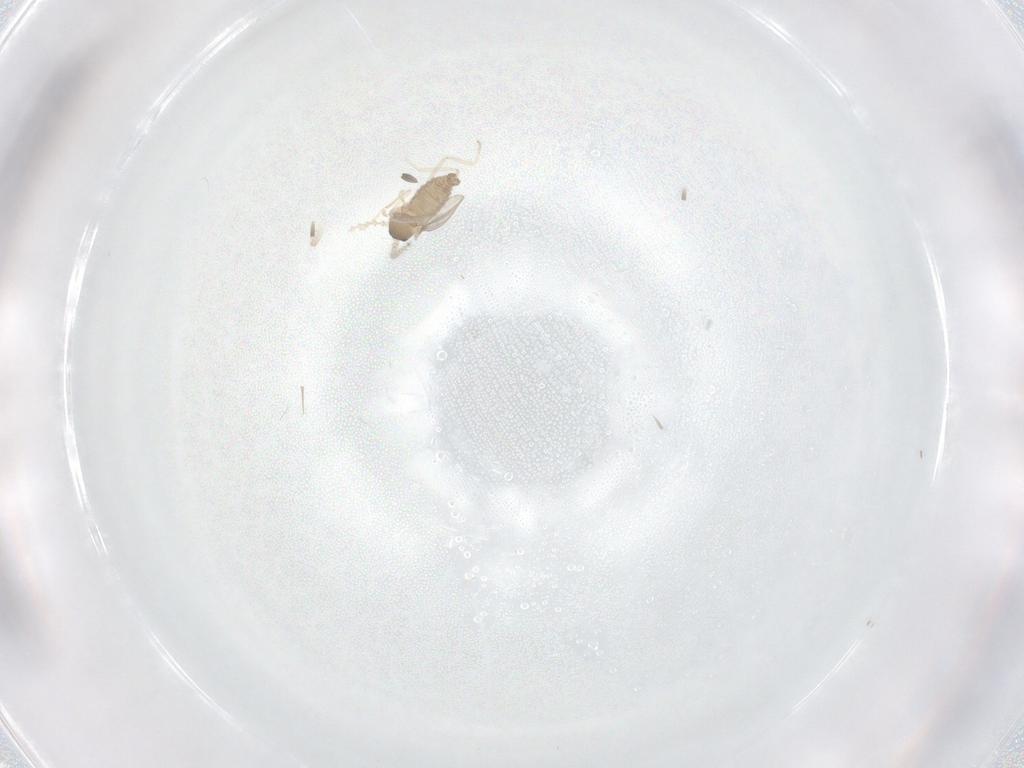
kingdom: Animalia
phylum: Arthropoda
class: Insecta
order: Diptera
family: Cecidomyiidae
